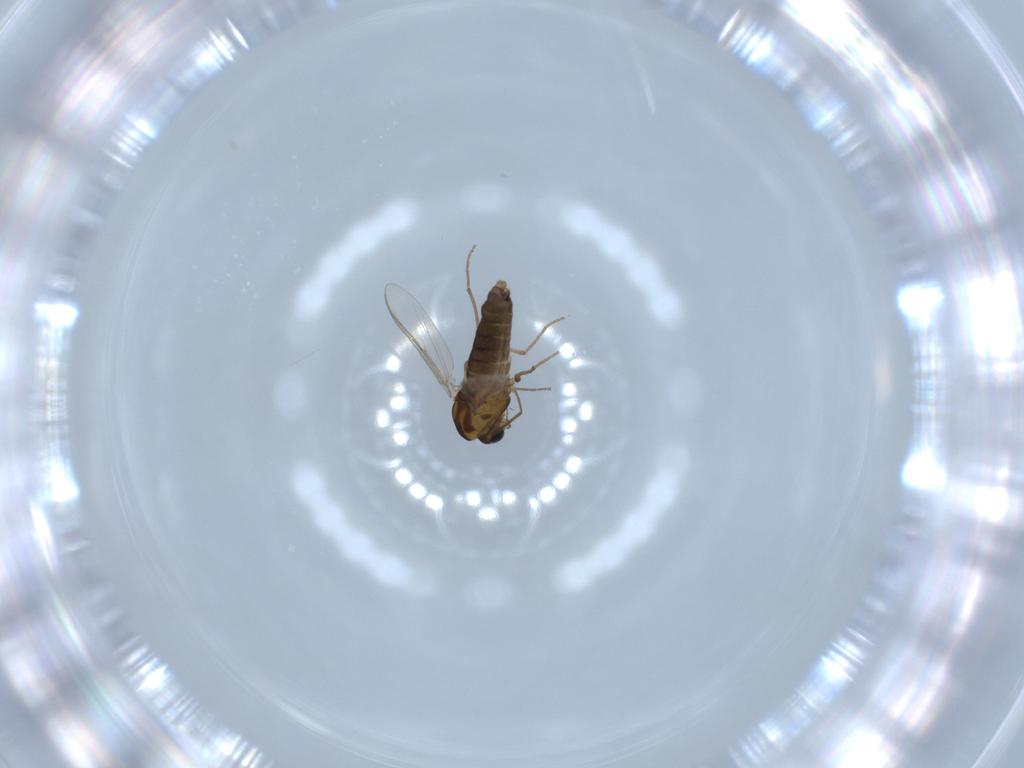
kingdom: Animalia
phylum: Arthropoda
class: Insecta
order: Diptera
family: Chironomidae
